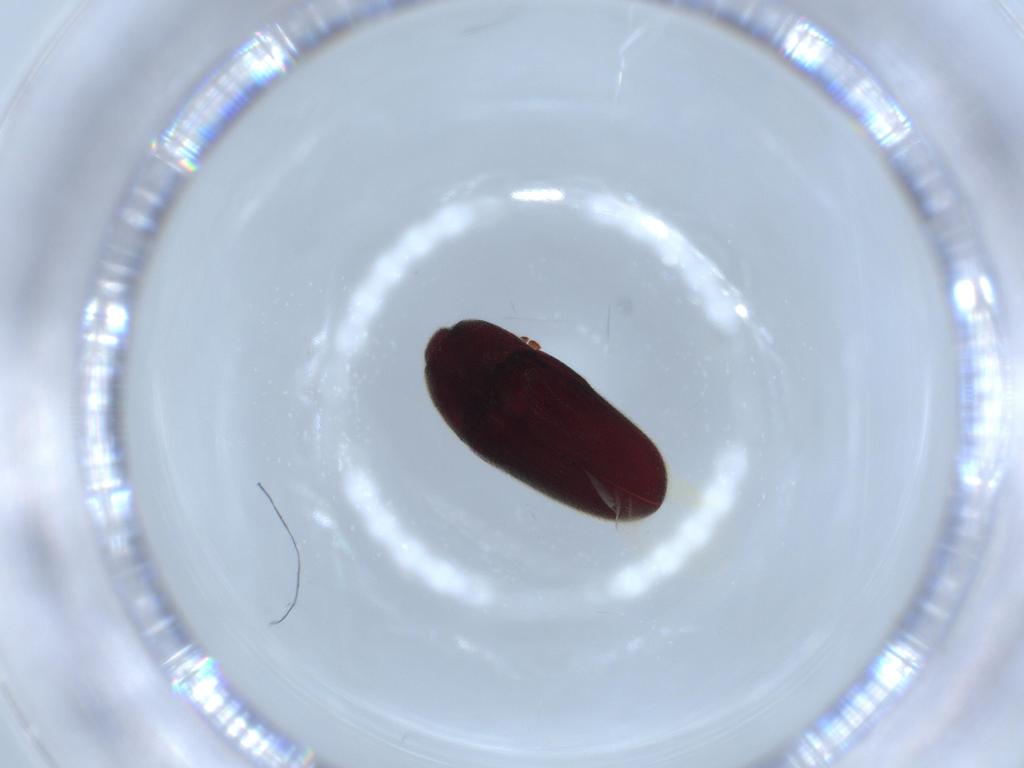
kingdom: Animalia
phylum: Arthropoda
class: Insecta
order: Coleoptera
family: Throscidae
